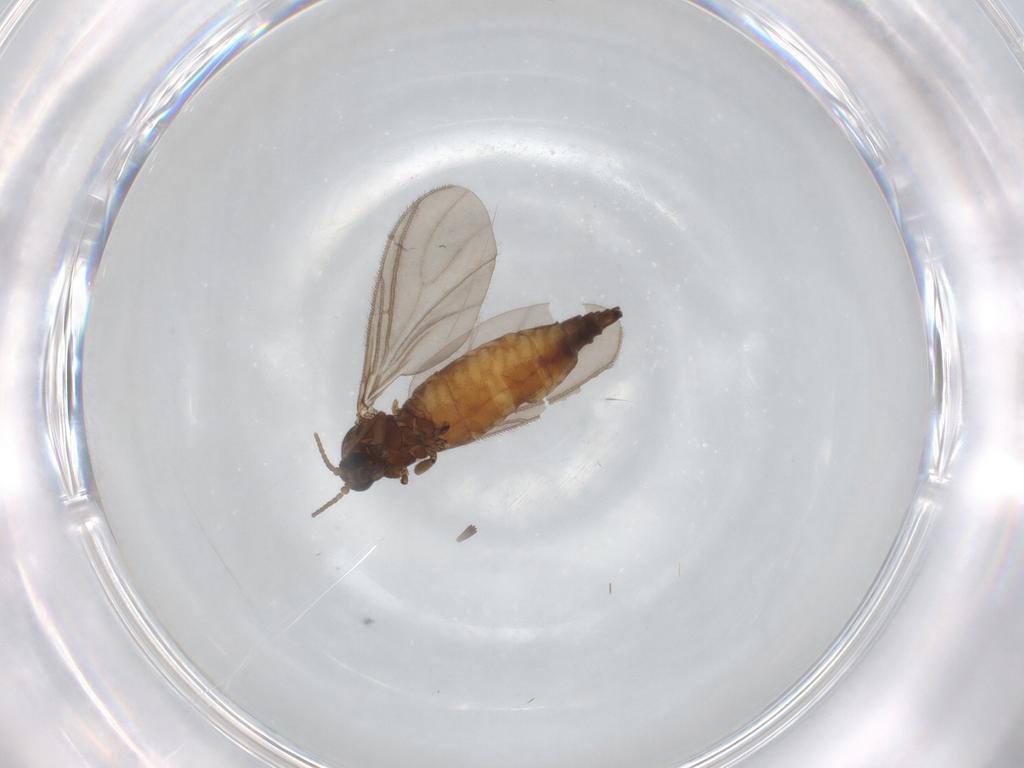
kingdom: Animalia
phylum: Arthropoda
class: Insecta
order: Diptera
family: Sciaridae
